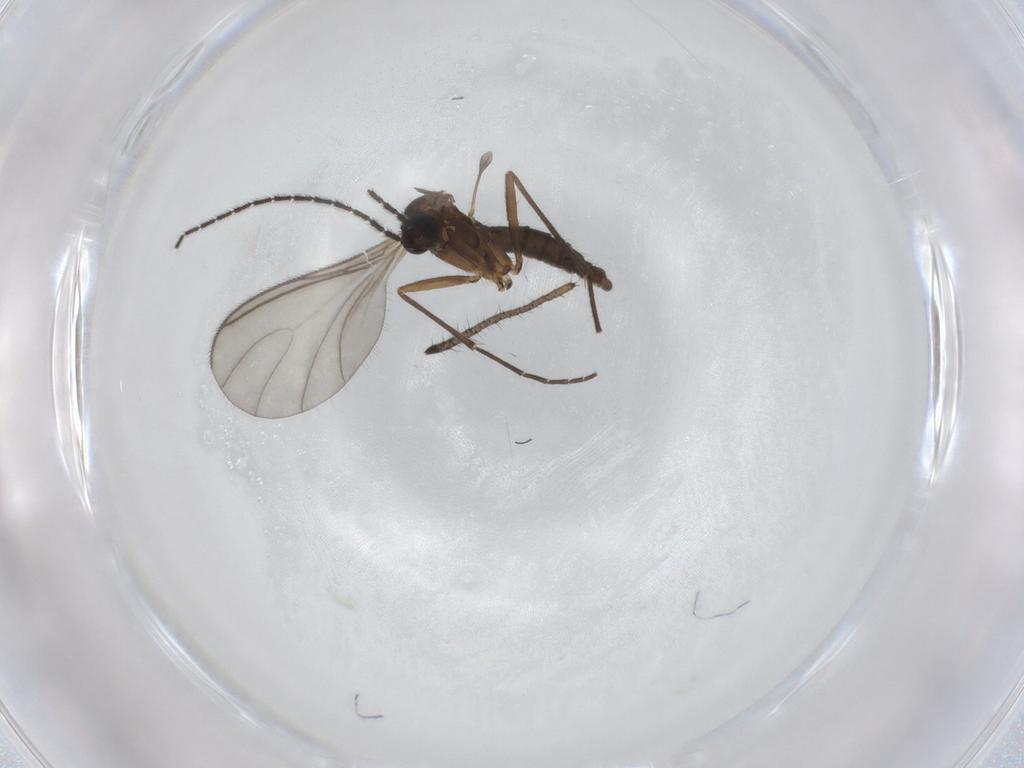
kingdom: Animalia
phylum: Arthropoda
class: Insecta
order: Diptera
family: Sciaridae
